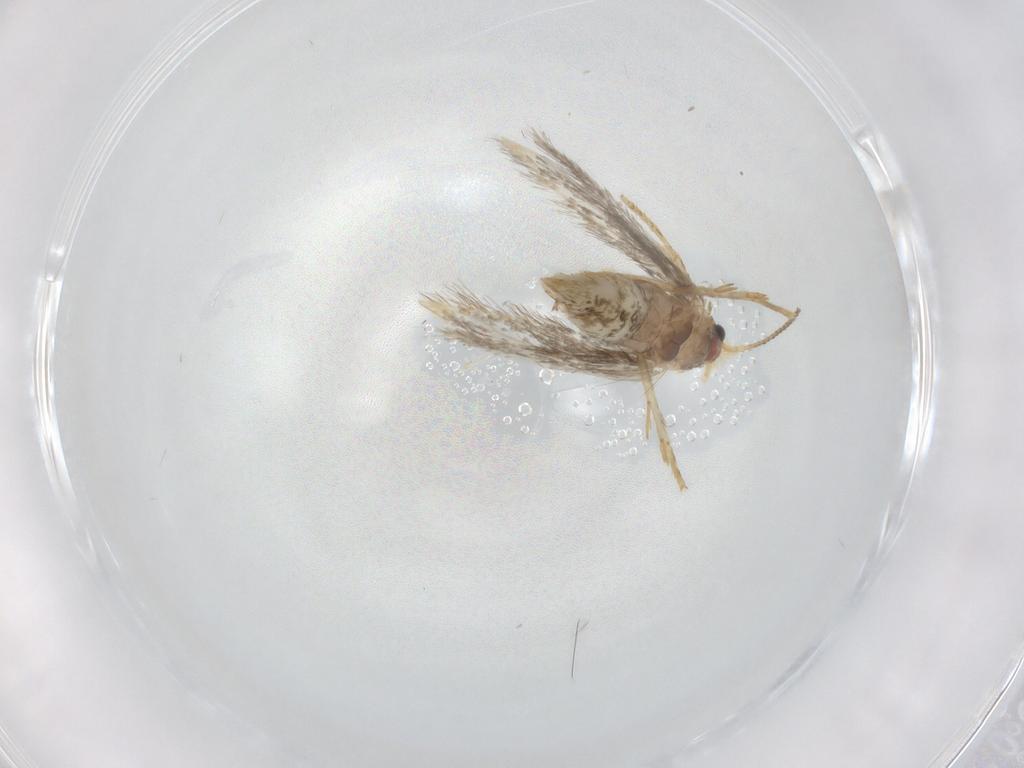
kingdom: Animalia
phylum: Arthropoda
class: Insecta
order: Lepidoptera
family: Nepticulidae
